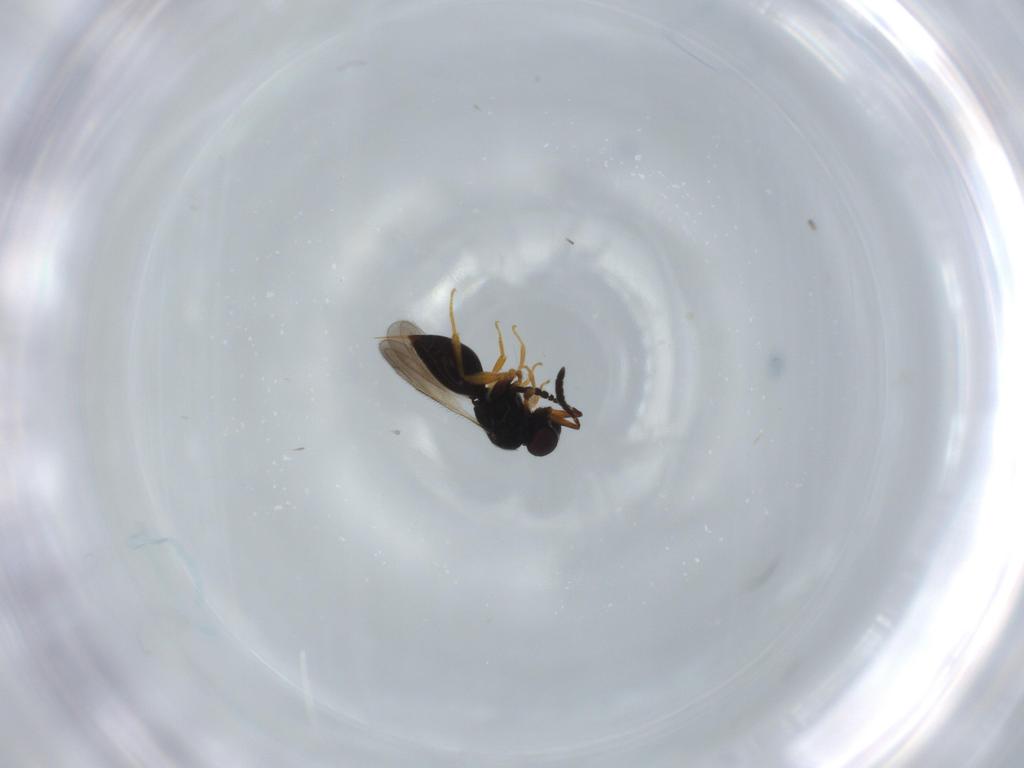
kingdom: Animalia
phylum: Arthropoda
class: Insecta
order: Hymenoptera
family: Ceraphronidae
